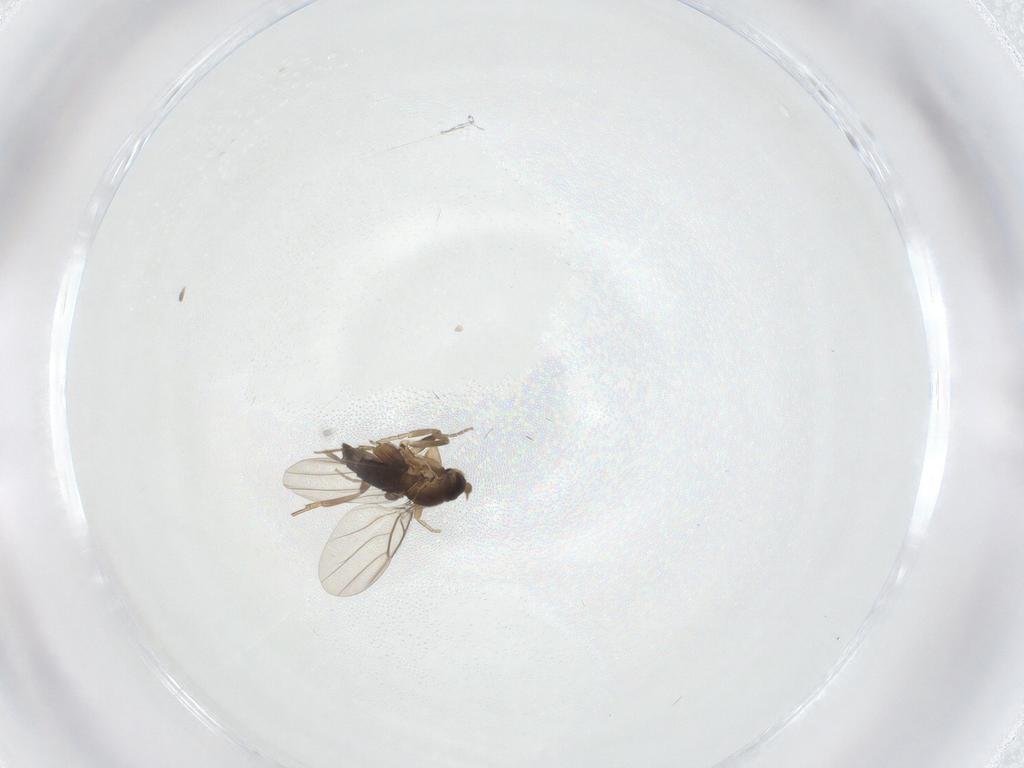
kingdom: Animalia
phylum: Arthropoda
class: Insecta
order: Diptera
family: Phoridae
